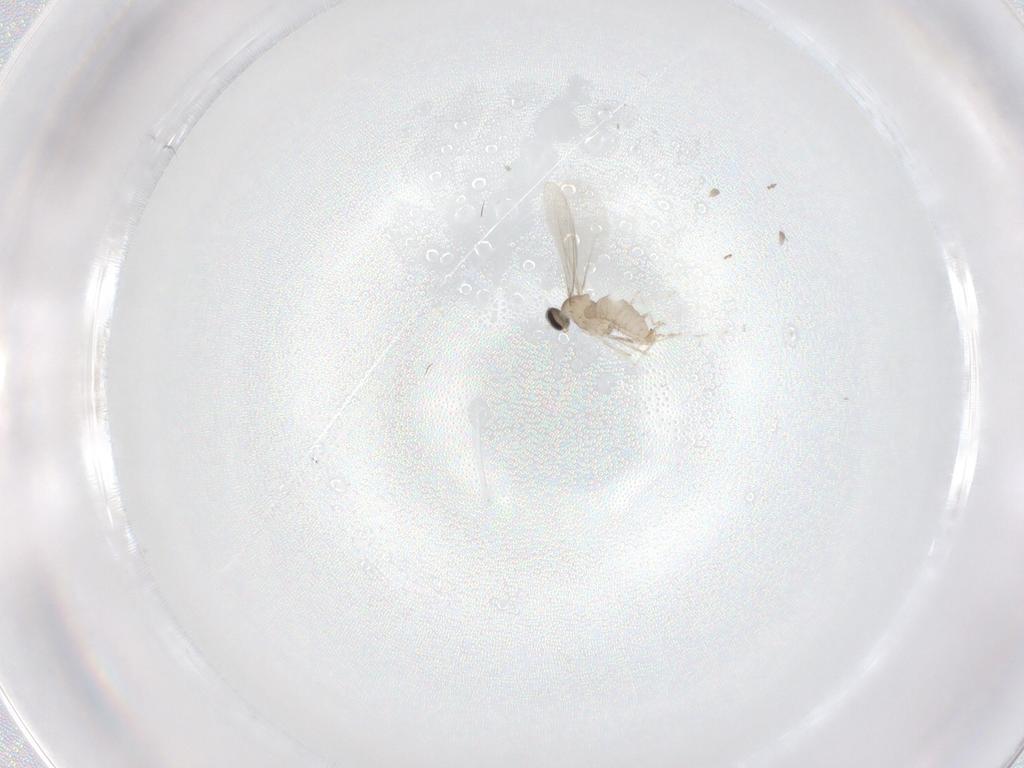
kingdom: Animalia
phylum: Arthropoda
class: Insecta
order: Diptera
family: Cecidomyiidae
